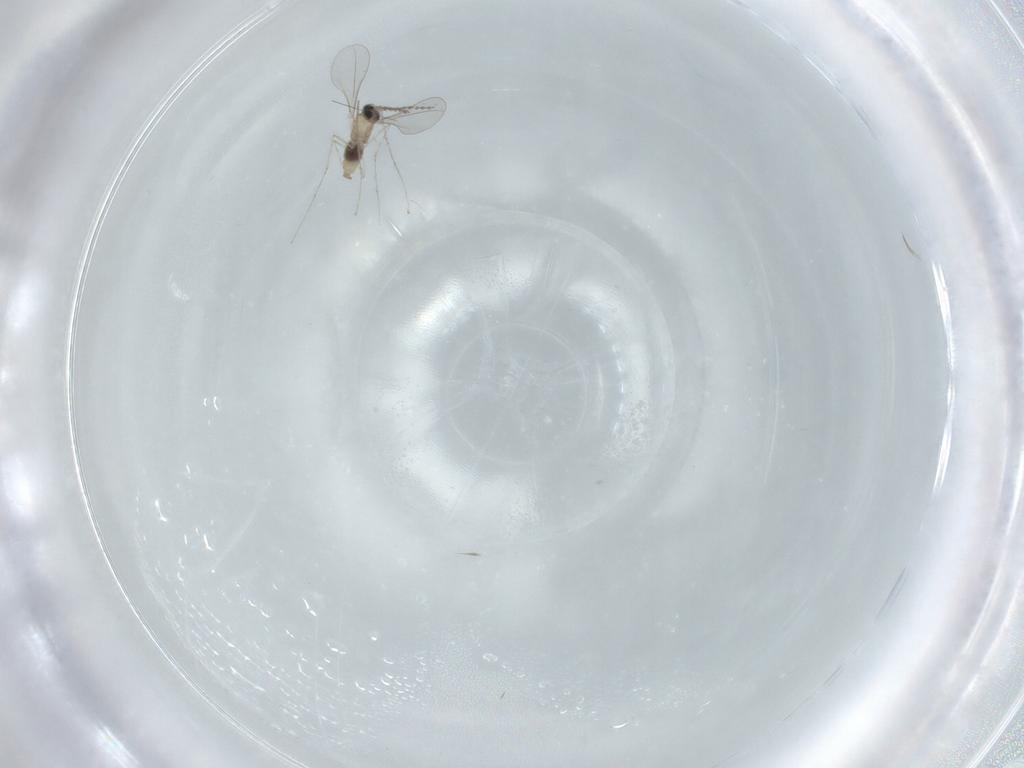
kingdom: Animalia
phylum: Arthropoda
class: Insecta
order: Diptera
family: Cecidomyiidae
